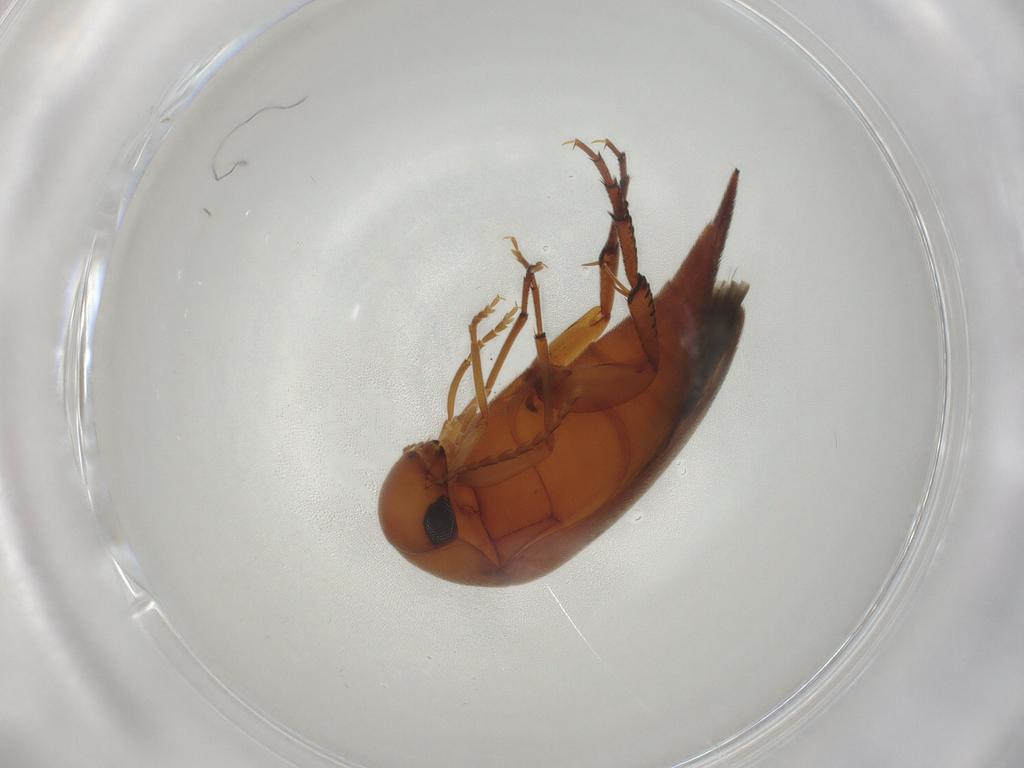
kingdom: Animalia
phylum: Arthropoda
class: Insecta
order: Coleoptera
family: Mordellidae
